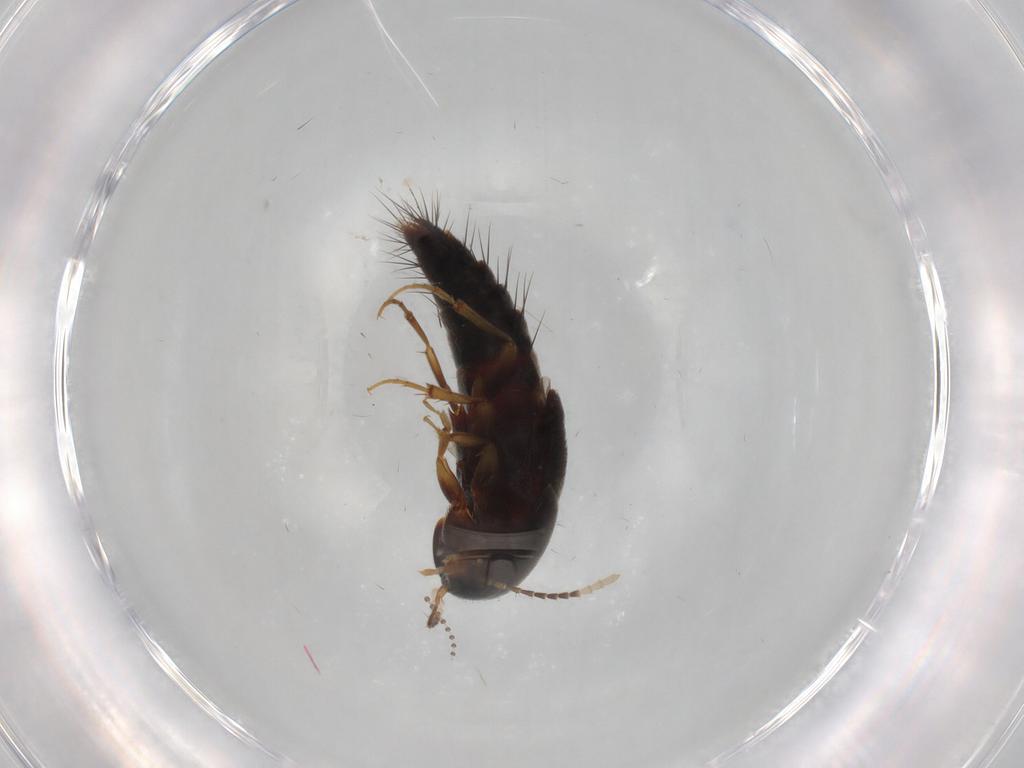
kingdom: Animalia
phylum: Arthropoda
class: Insecta
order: Coleoptera
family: Staphylinidae
